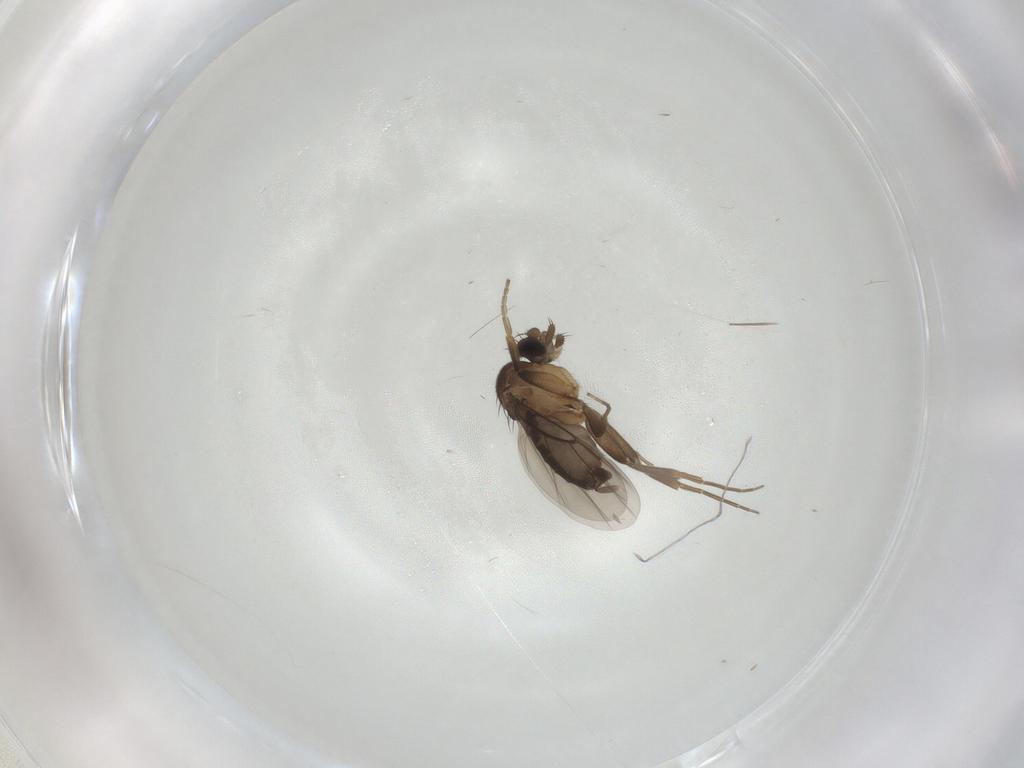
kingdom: Animalia
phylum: Arthropoda
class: Insecta
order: Diptera
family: Phoridae
